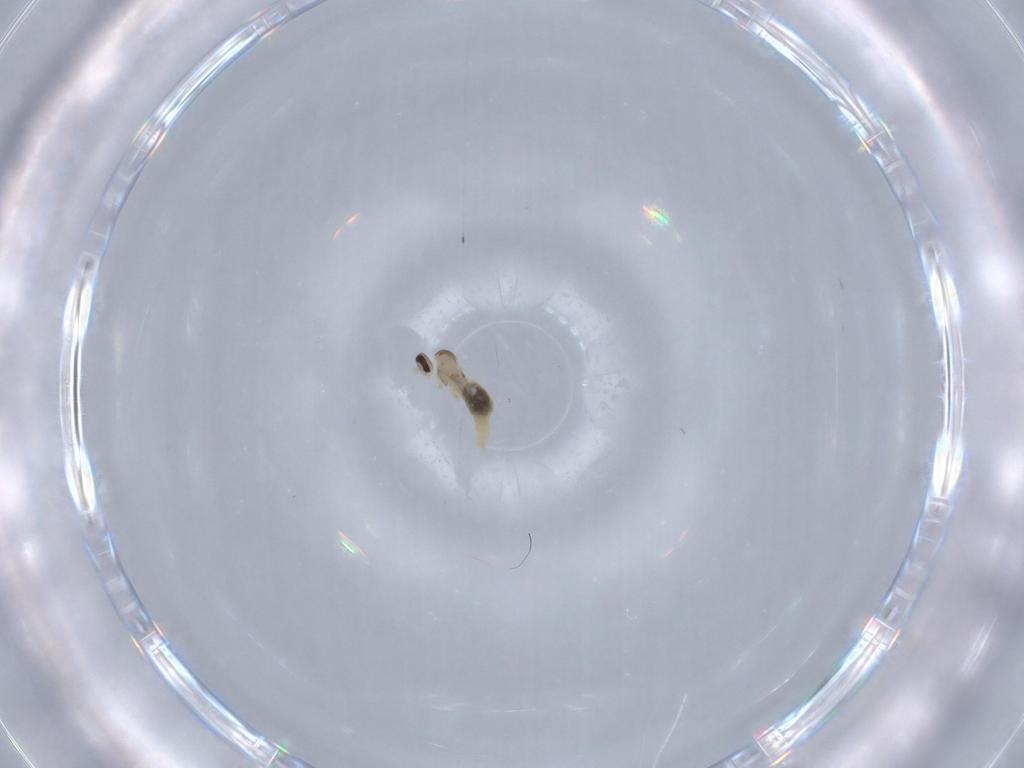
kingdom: Animalia
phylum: Arthropoda
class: Insecta
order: Diptera
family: Cecidomyiidae
